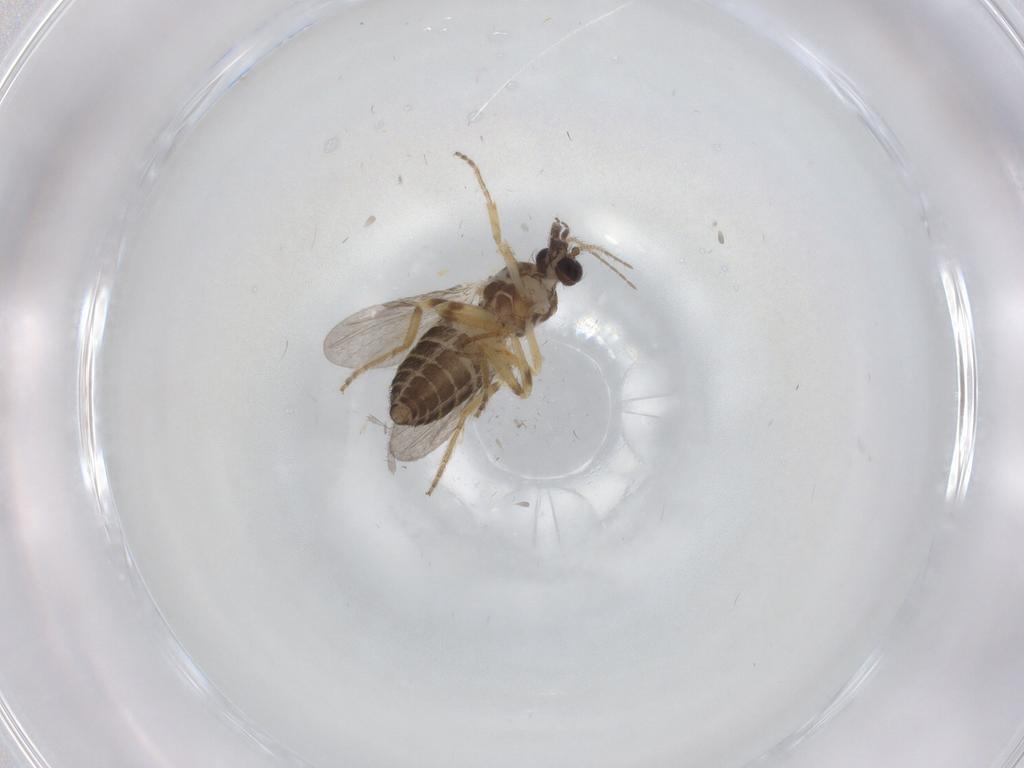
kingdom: Animalia
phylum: Arthropoda
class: Insecta
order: Diptera
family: Ceratopogonidae
